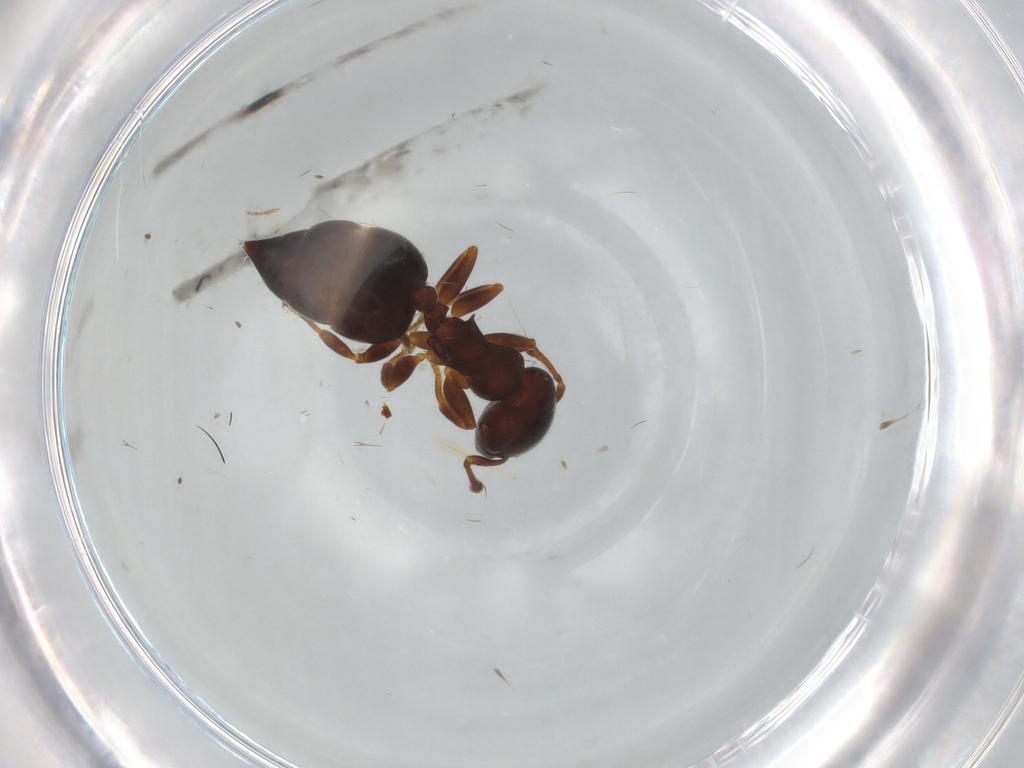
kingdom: Animalia
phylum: Arthropoda
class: Insecta
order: Hymenoptera
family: Formicidae
